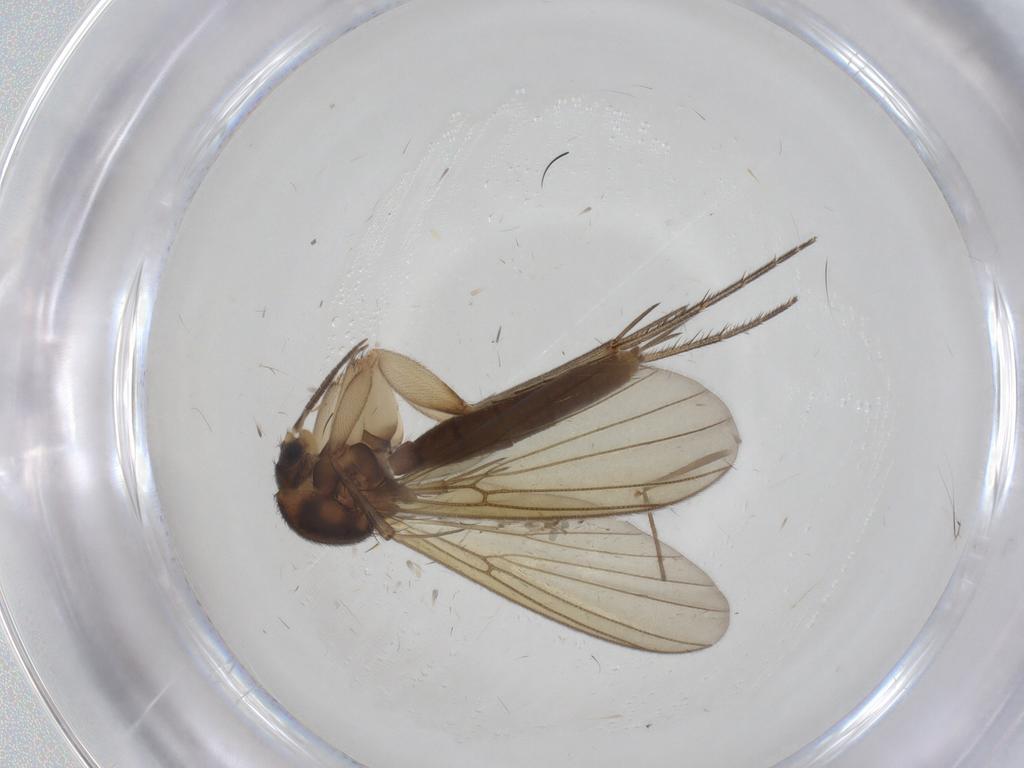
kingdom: Animalia
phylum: Arthropoda
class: Insecta
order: Diptera
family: Mycetophilidae
